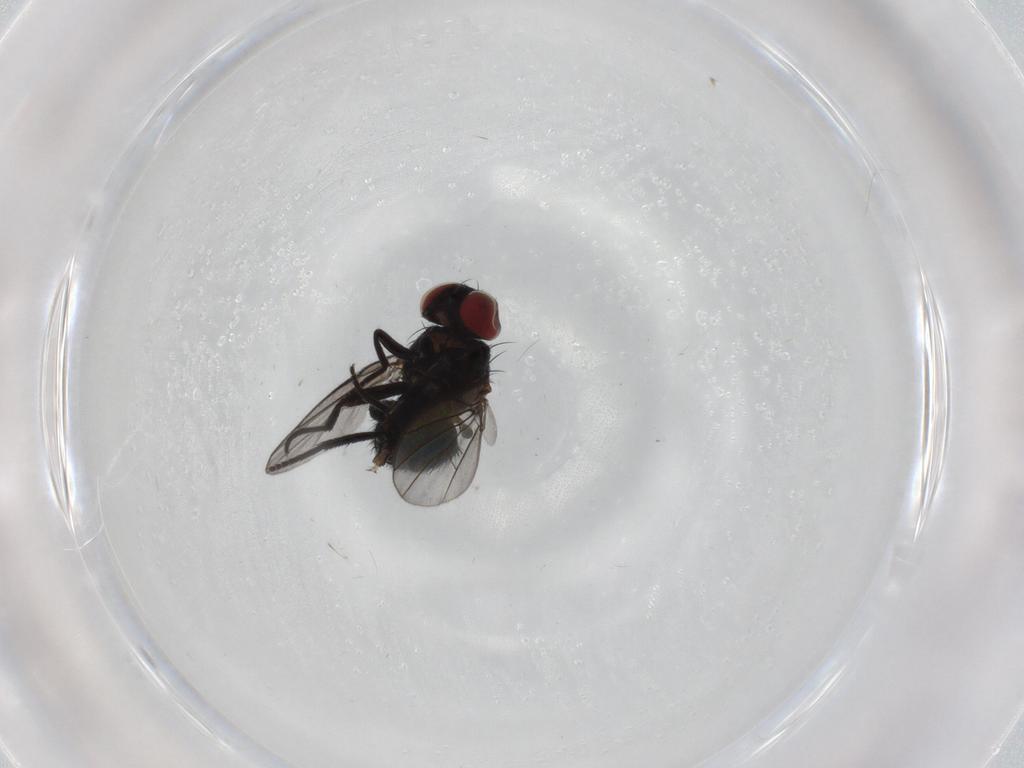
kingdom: Animalia
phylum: Arthropoda
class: Insecta
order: Diptera
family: Agromyzidae
